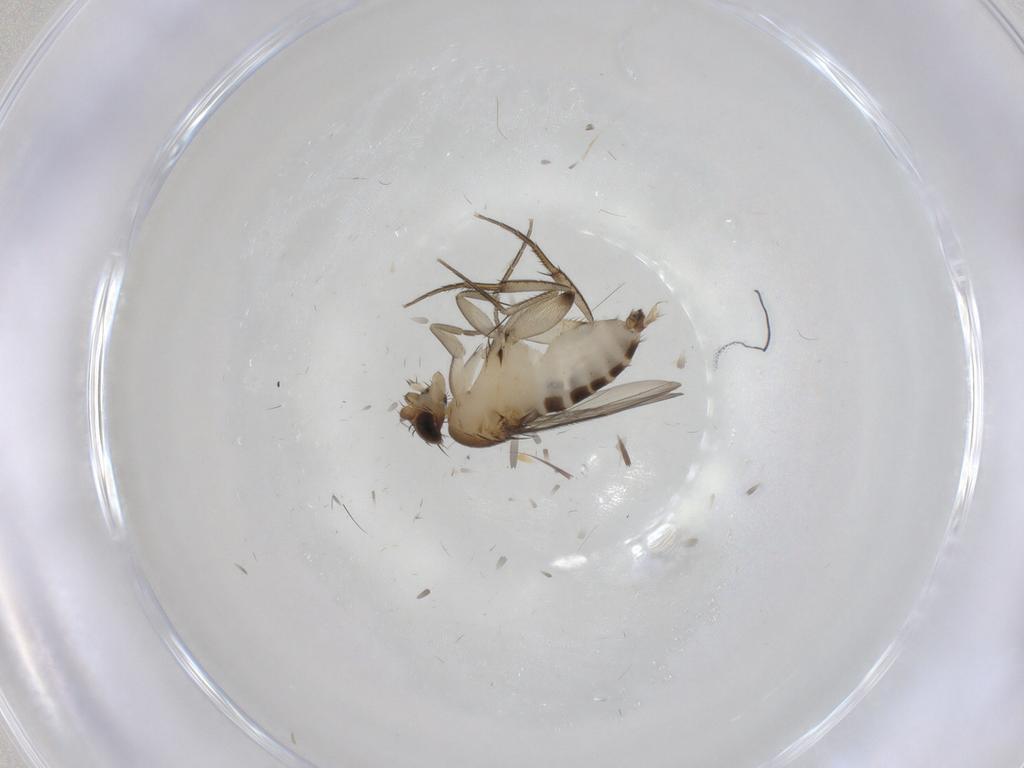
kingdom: Animalia
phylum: Arthropoda
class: Insecta
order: Diptera
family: Phoridae
